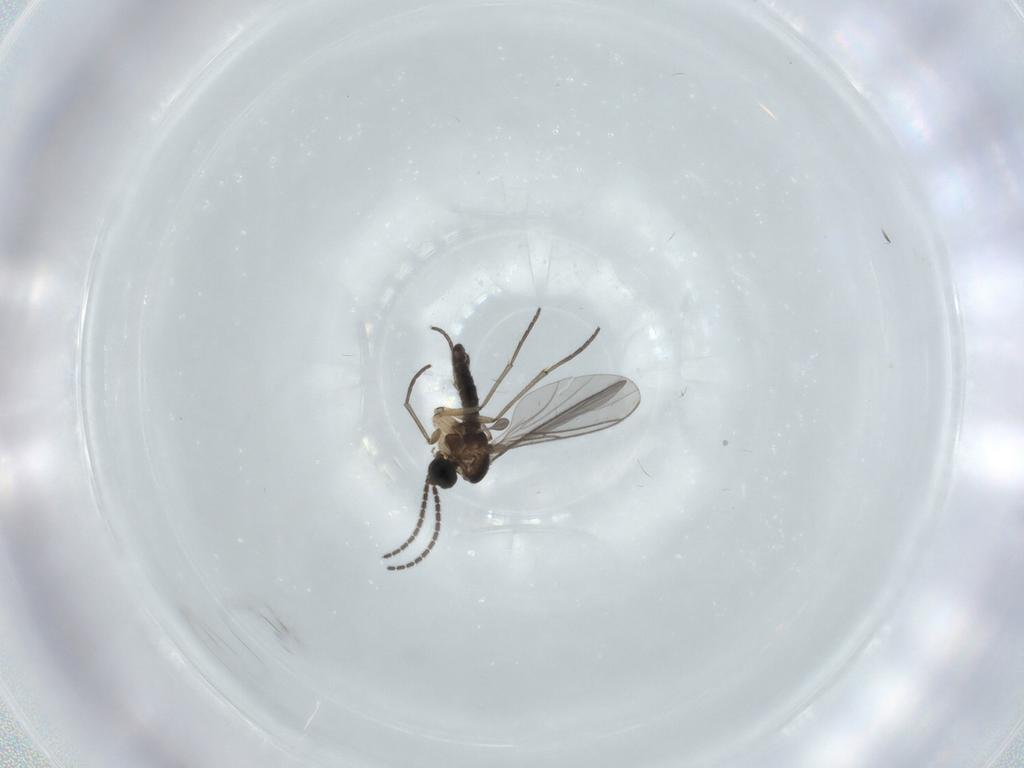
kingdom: Animalia
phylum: Arthropoda
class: Insecta
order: Diptera
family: Sciaridae
